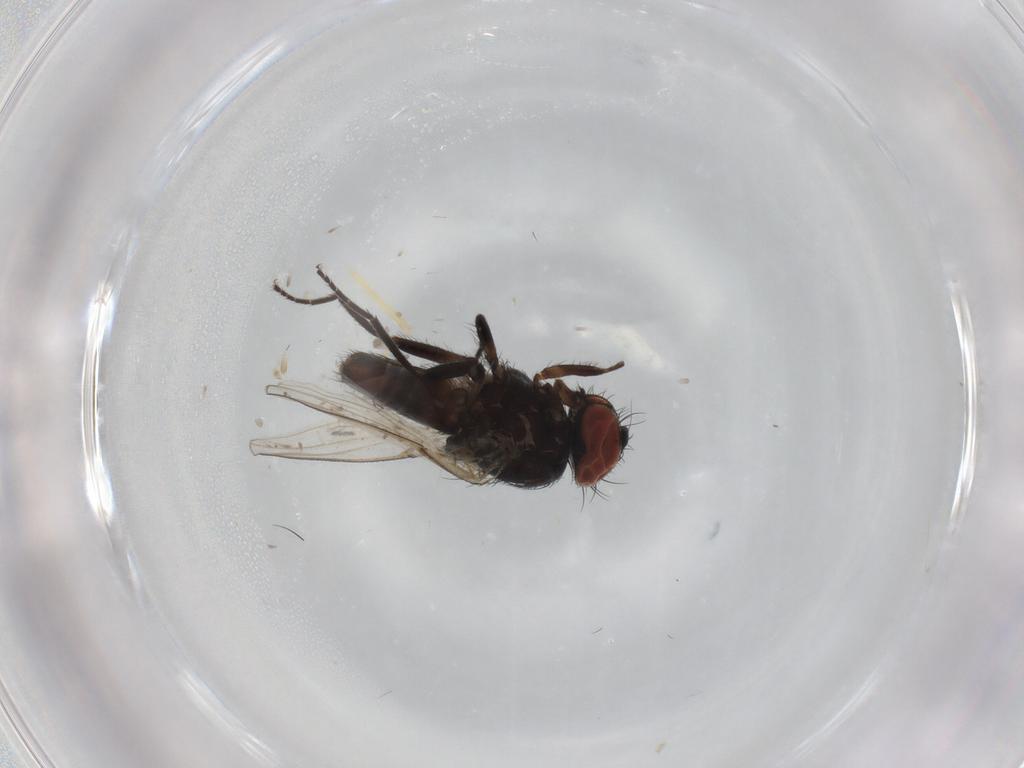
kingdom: Animalia
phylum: Arthropoda
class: Insecta
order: Diptera
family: Milichiidae
